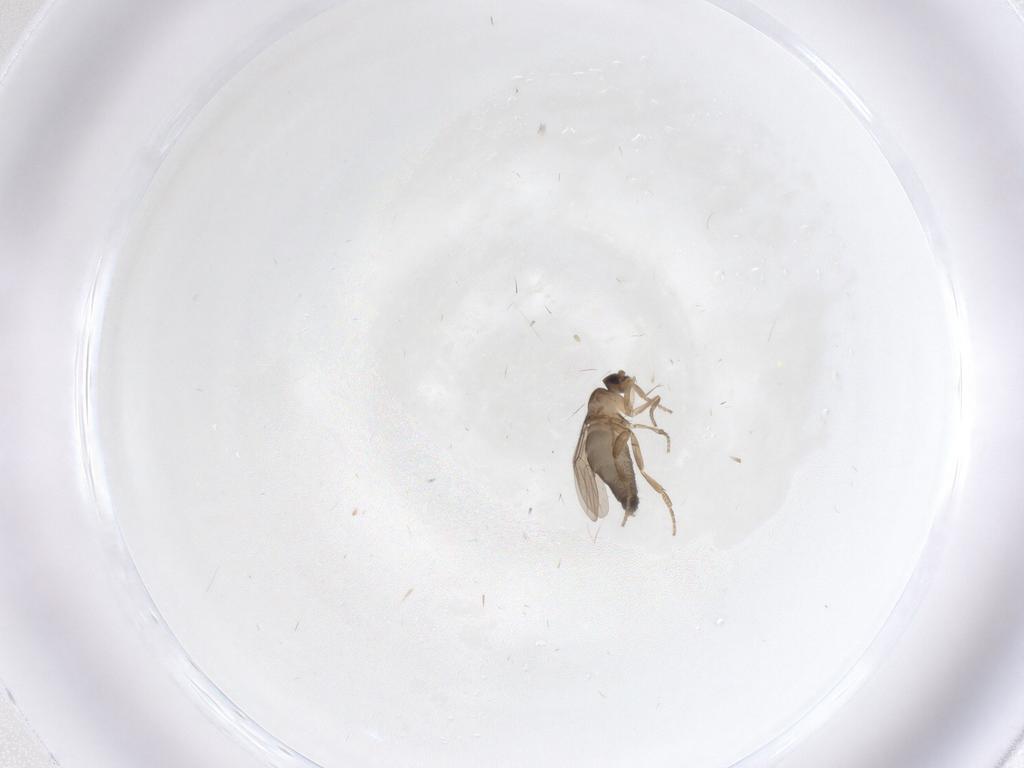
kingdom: Animalia
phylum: Arthropoda
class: Insecta
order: Diptera
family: Phoridae
